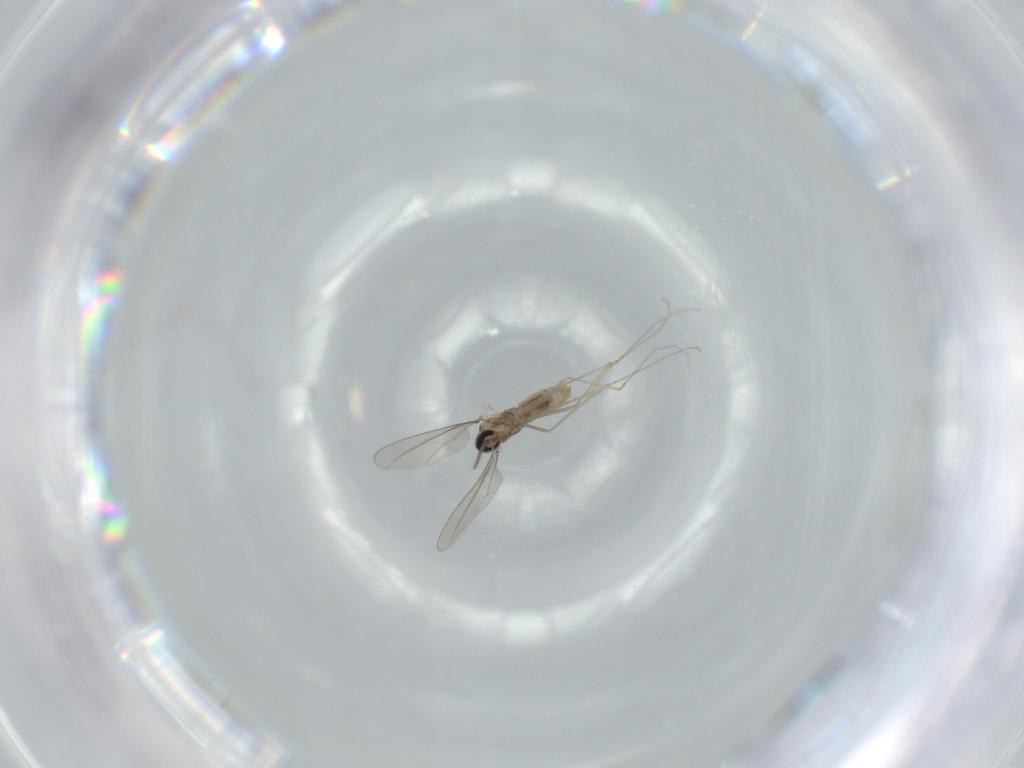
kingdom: Animalia
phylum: Arthropoda
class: Insecta
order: Diptera
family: Cecidomyiidae
